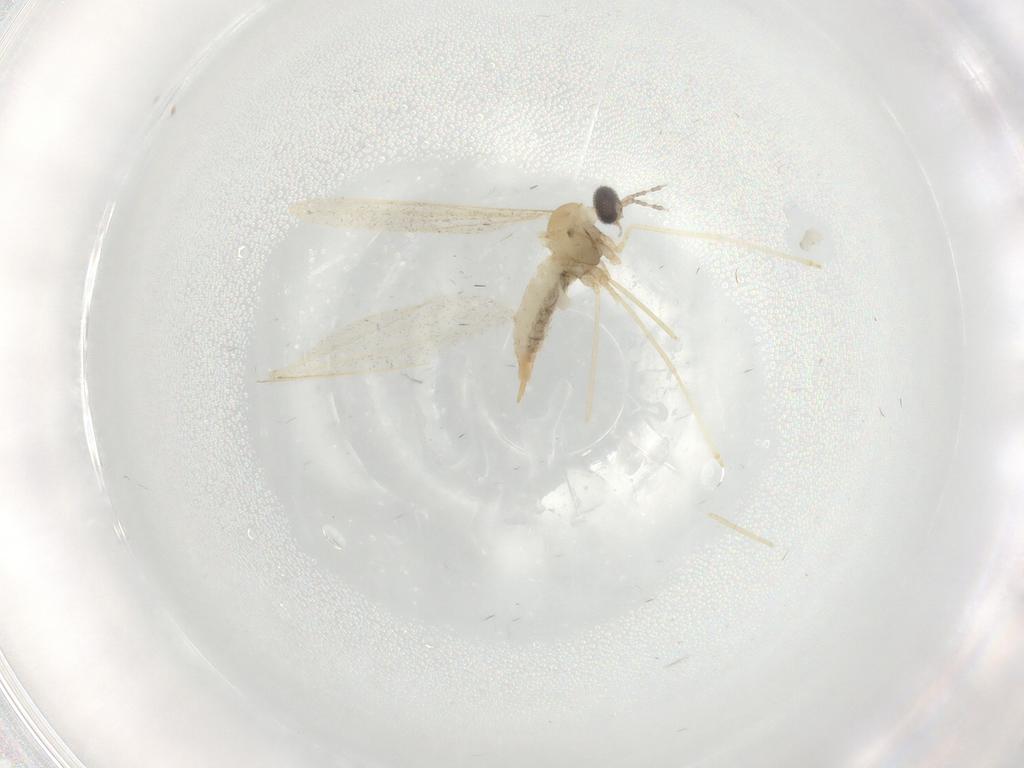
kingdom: Animalia
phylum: Arthropoda
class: Insecta
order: Diptera
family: Cecidomyiidae
